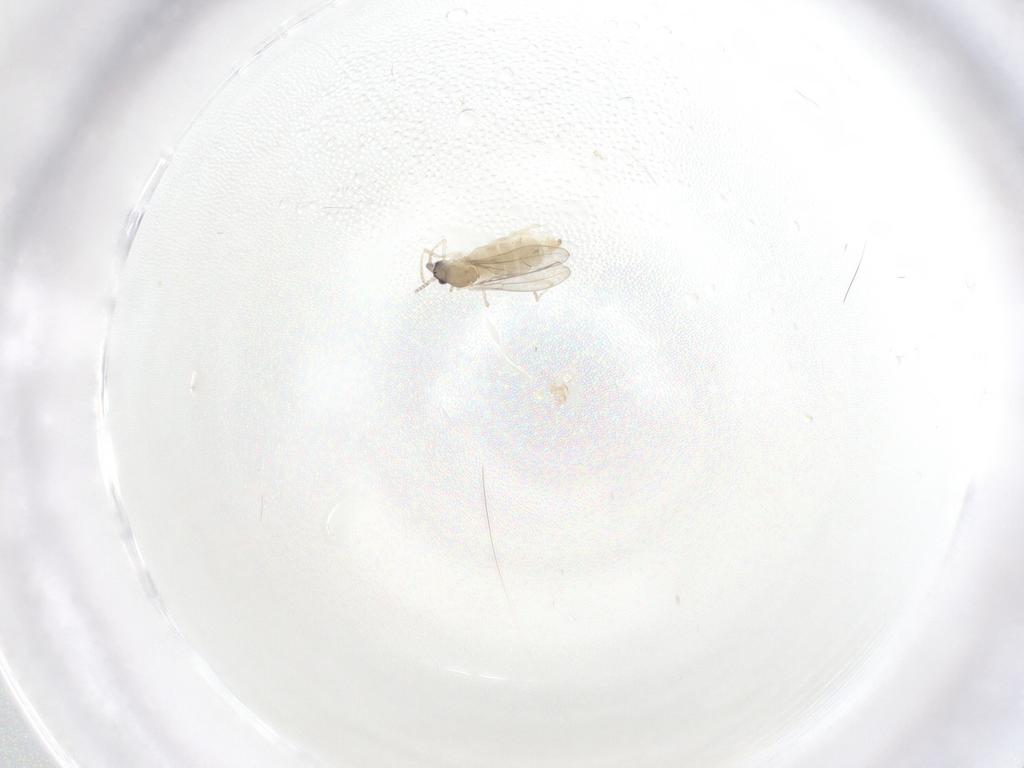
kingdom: Animalia
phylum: Arthropoda
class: Insecta
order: Diptera
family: Cecidomyiidae
